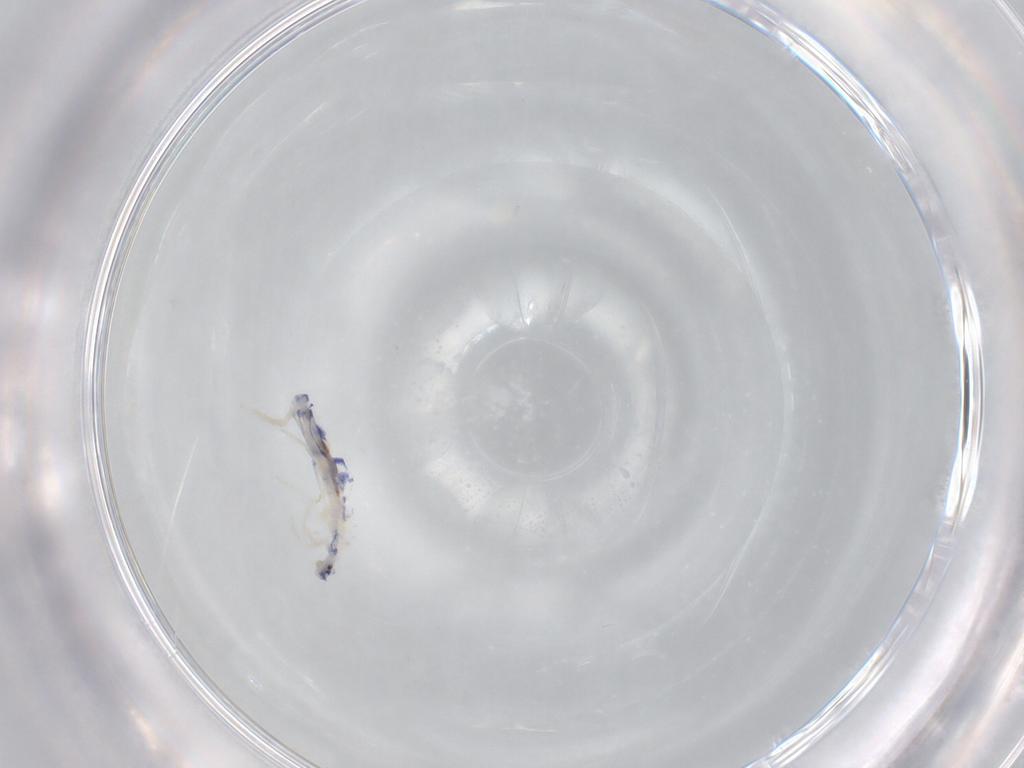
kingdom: Animalia
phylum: Arthropoda
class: Collembola
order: Entomobryomorpha
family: Entomobryidae
